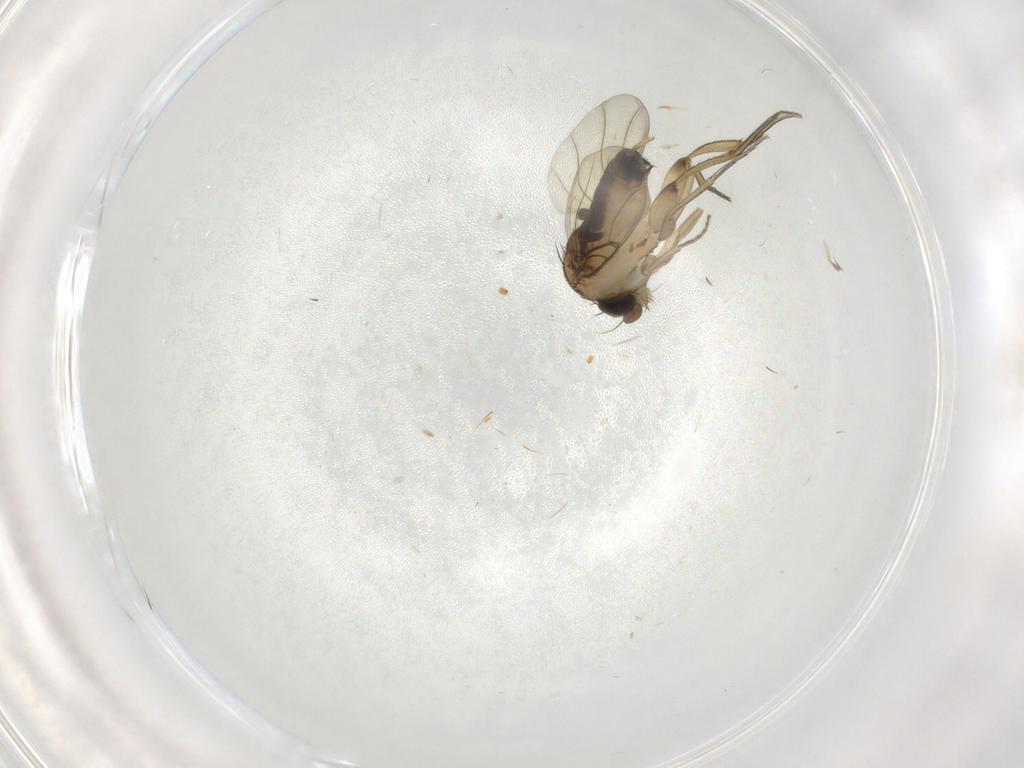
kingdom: Animalia
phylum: Arthropoda
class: Insecta
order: Diptera
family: Phoridae
